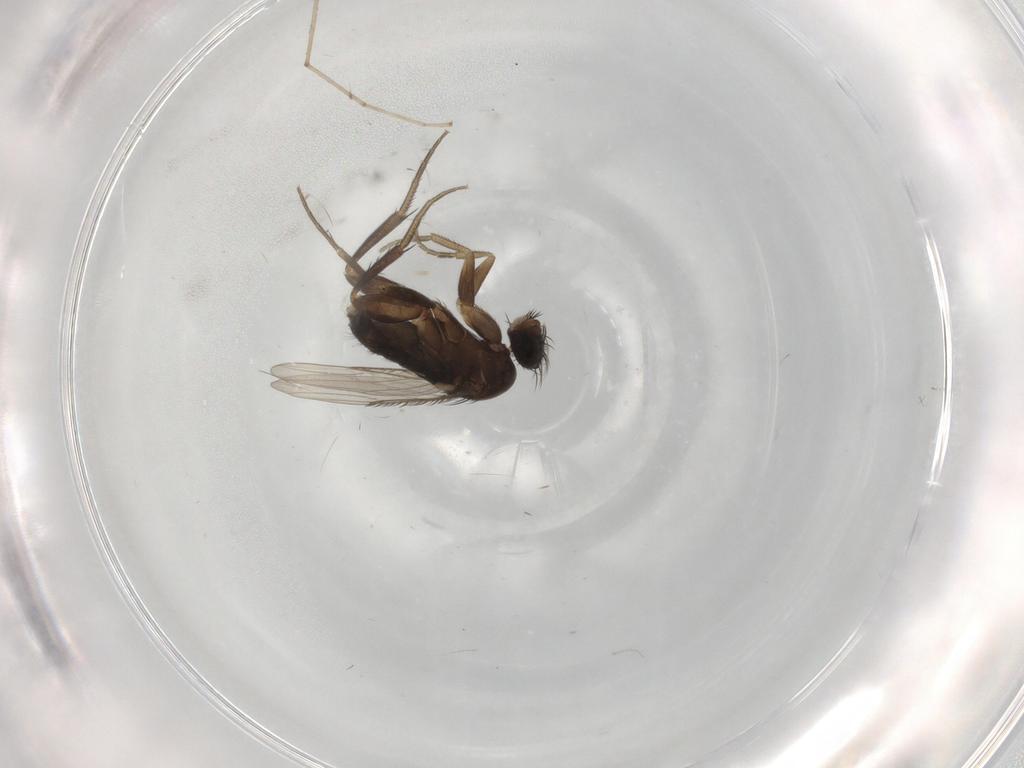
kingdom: Animalia
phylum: Arthropoda
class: Insecta
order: Diptera
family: Phoridae
